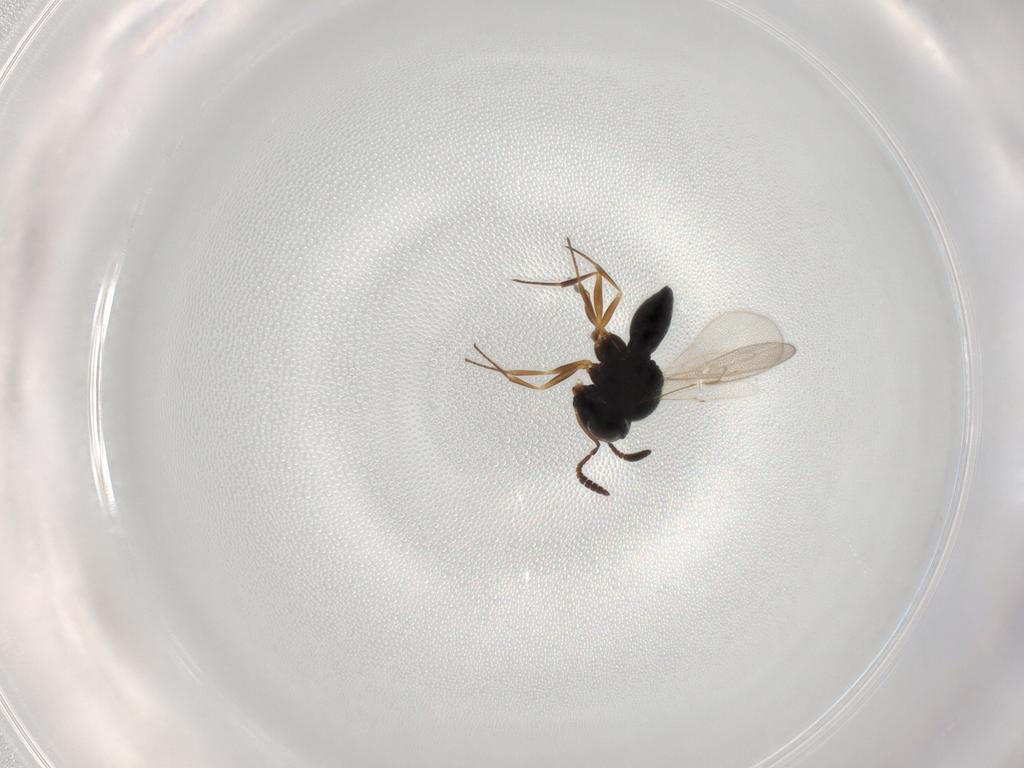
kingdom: Animalia
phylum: Arthropoda
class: Insecta
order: Hymenoptera
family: Scelionidae
